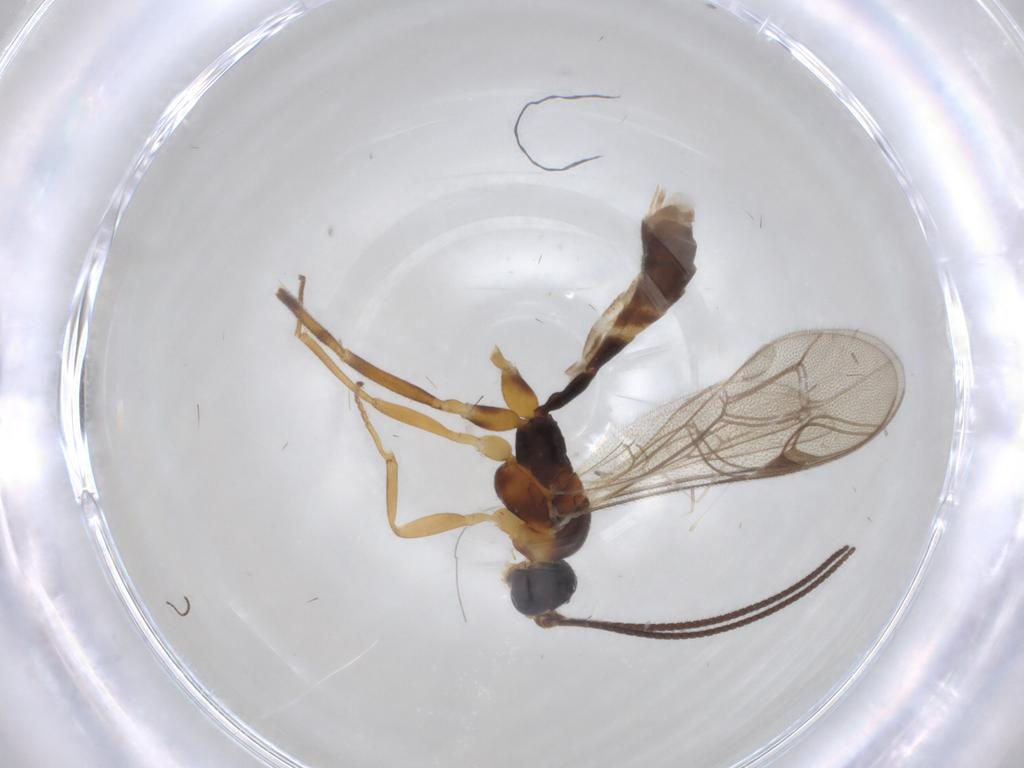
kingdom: Animalia
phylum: Arthropoda
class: Insecta
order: Hymenoptera
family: Ichneumonidae
